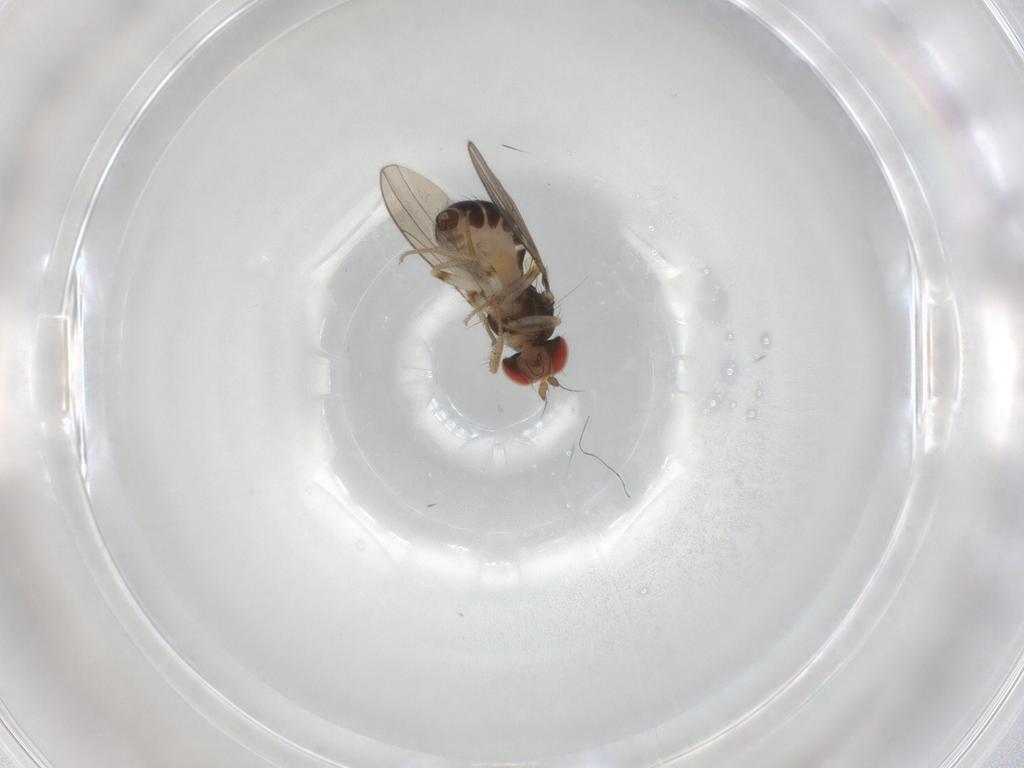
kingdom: Animalia
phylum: Arthropoda
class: Insecta
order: Diptera
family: Drosophilidae
